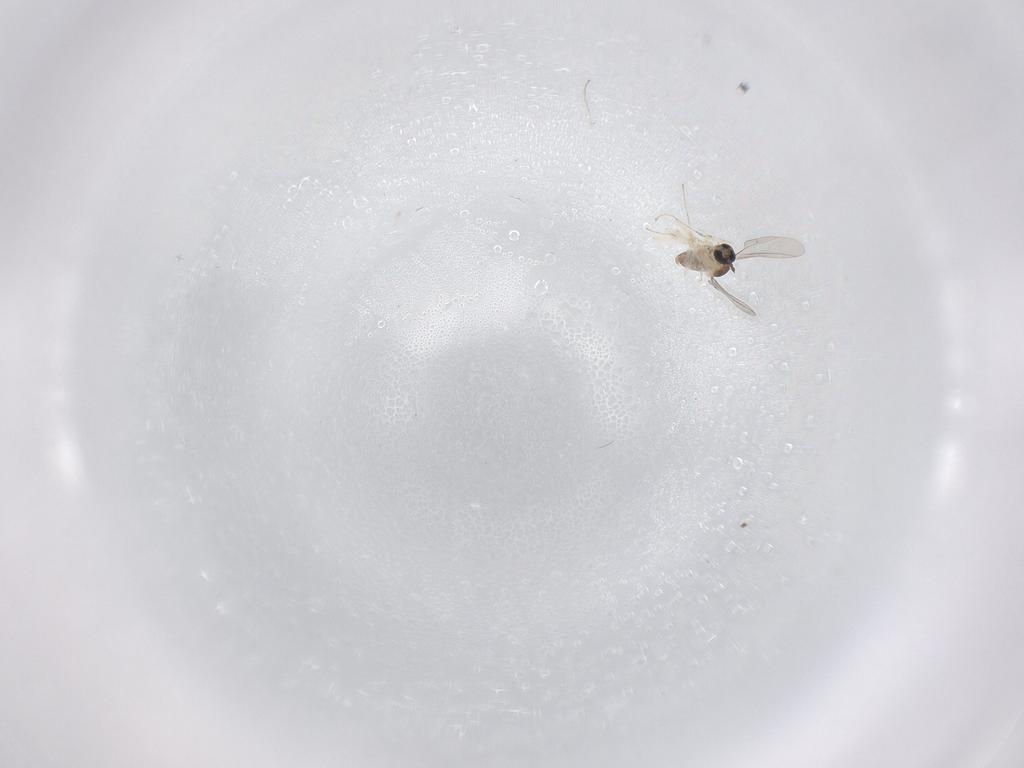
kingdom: Animalia
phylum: Arthropoda
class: Insecta
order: Diptera
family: Cecidomyiidae
